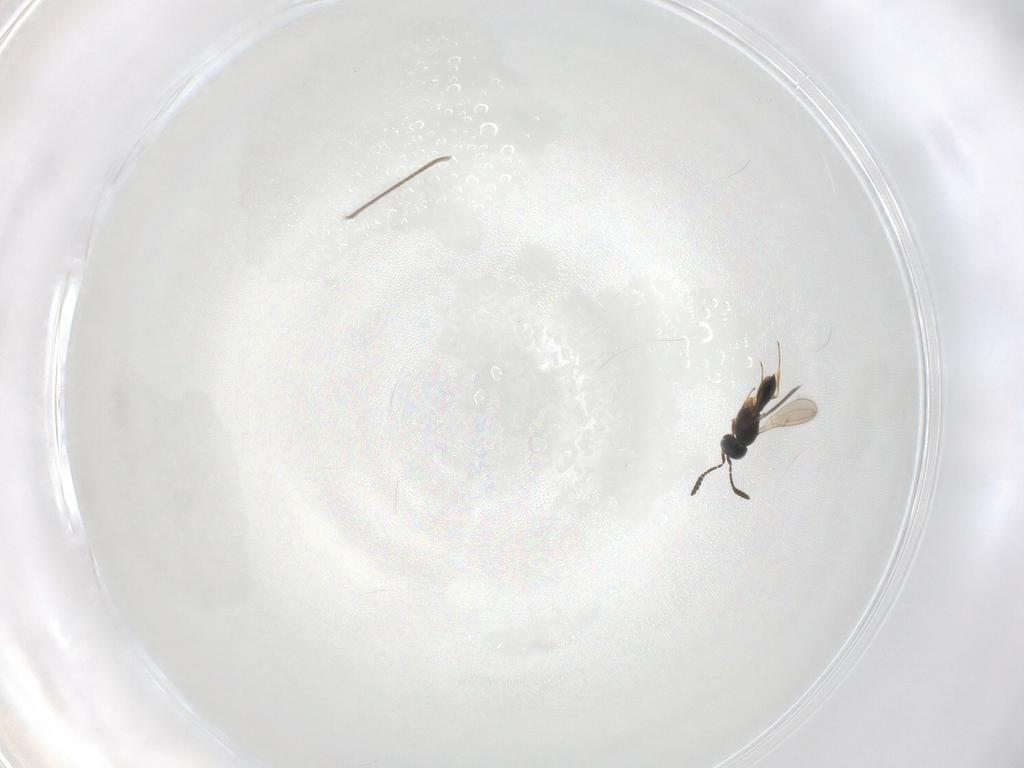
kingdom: Animalia
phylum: Arthropoda
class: Insecta
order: Hymenoptera
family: Scelionidae
